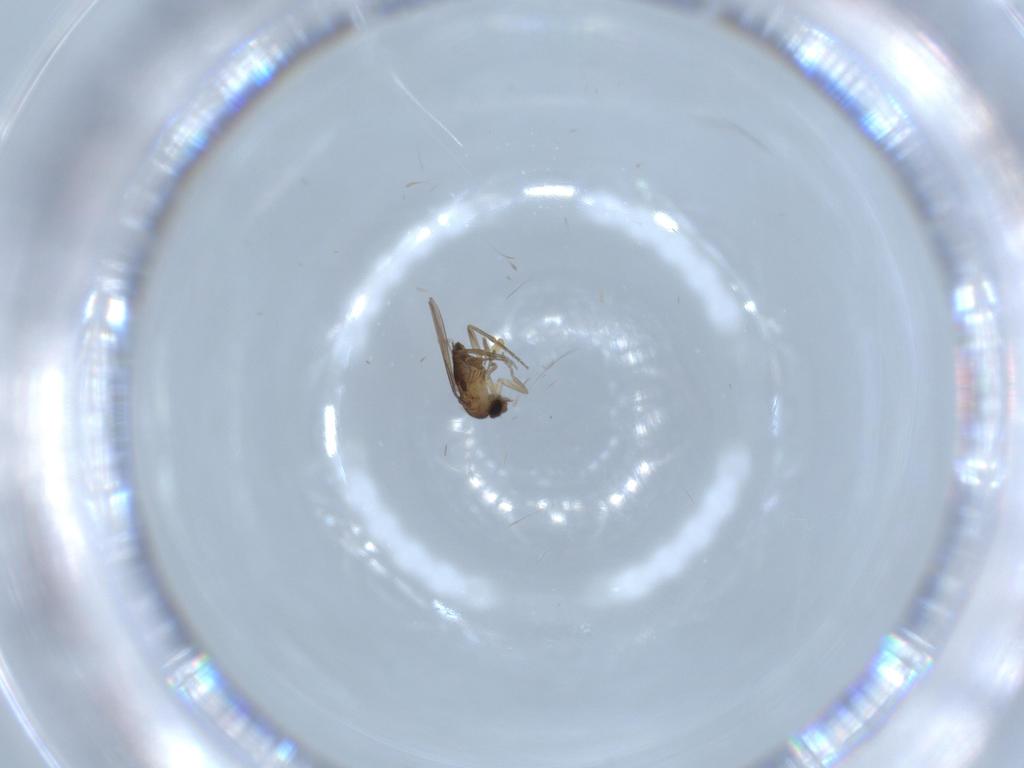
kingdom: Animalia
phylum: Arthropoda
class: Insecta
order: Diptera
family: Phoridae
